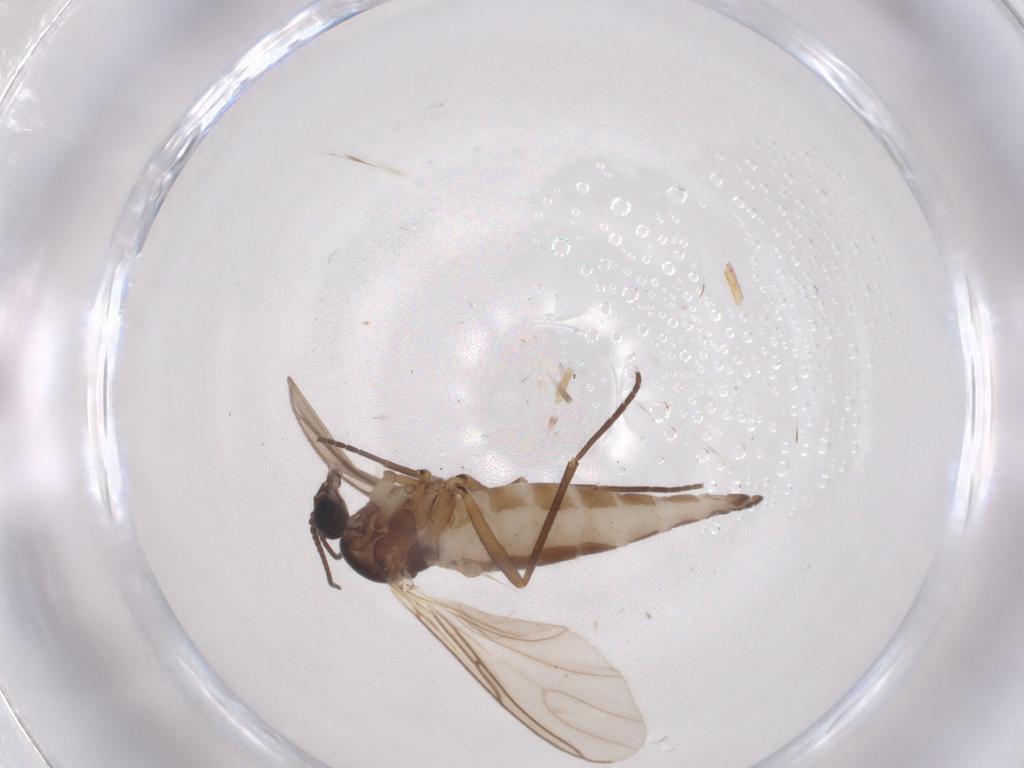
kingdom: Animalia
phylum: Arthropoda
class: Insecta
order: Diptera
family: Sciaridae
